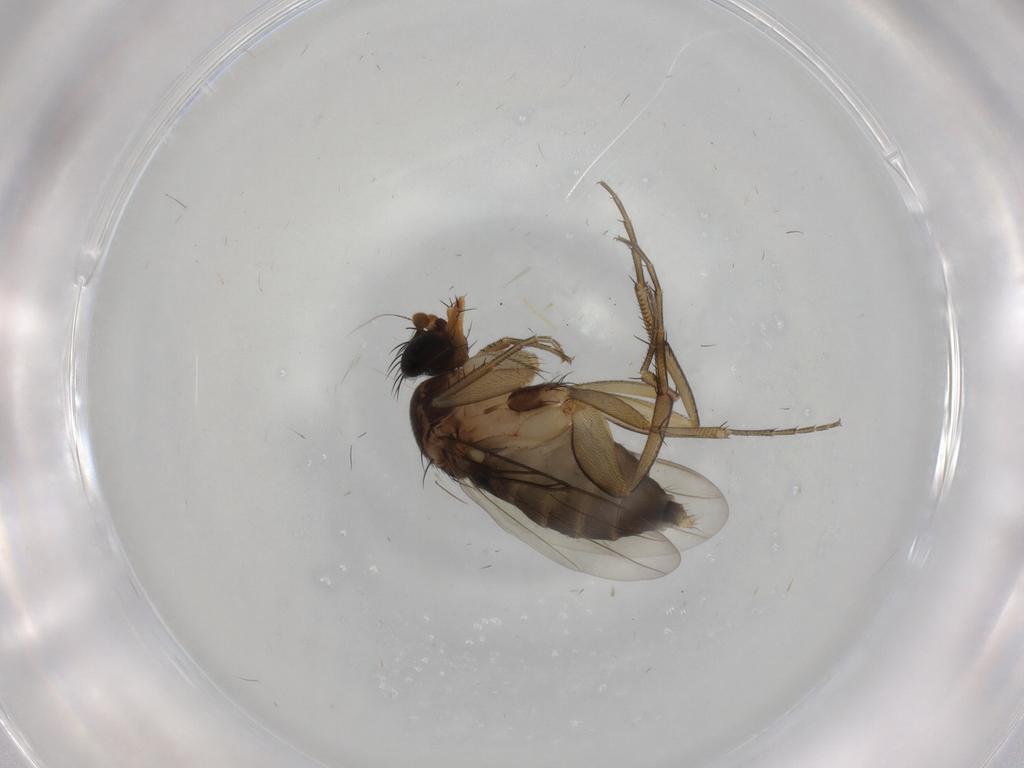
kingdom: Animalia
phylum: Arthropoda
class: Insecta
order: Diptera
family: Phoridae
